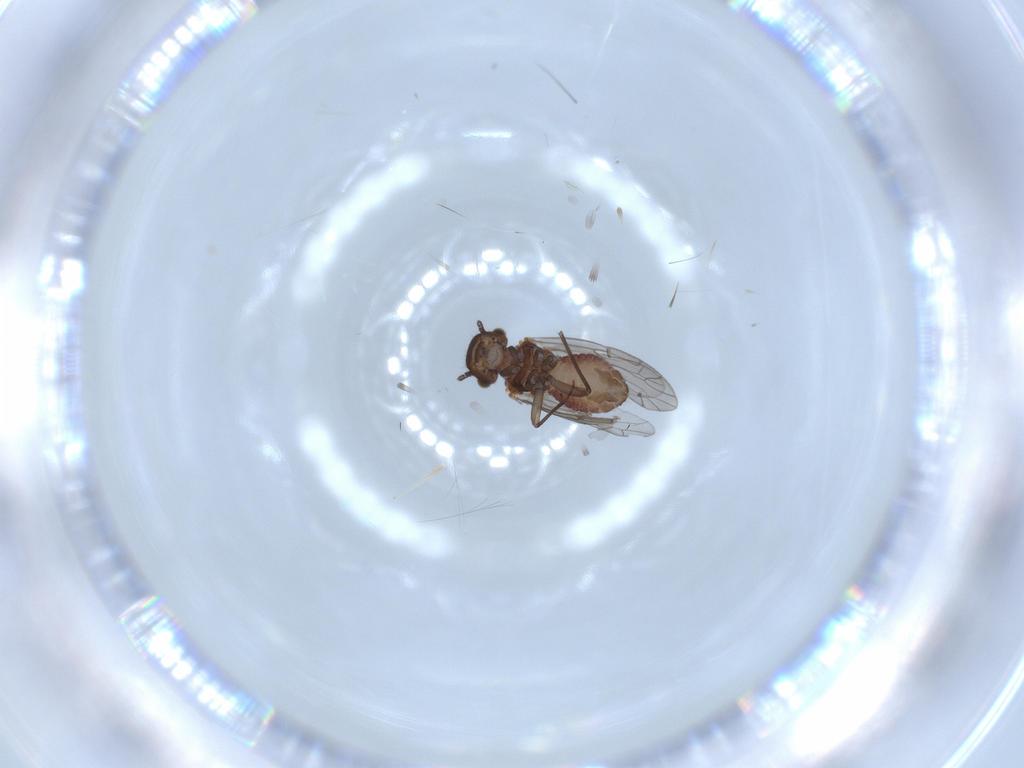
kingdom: Animalia
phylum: Arthropoda
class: Insecta
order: Psocodea
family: Ectopsocidae
